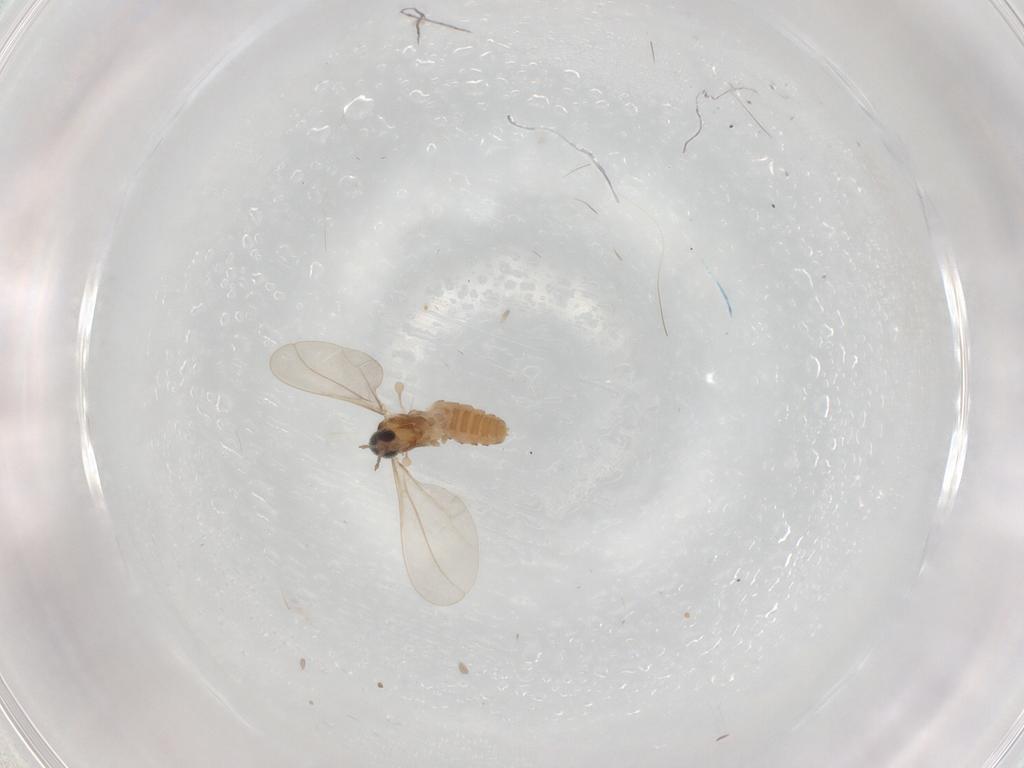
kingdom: Animalia
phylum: Arthropoda
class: Insecta
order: Diptera
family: Cecidomyiidae
